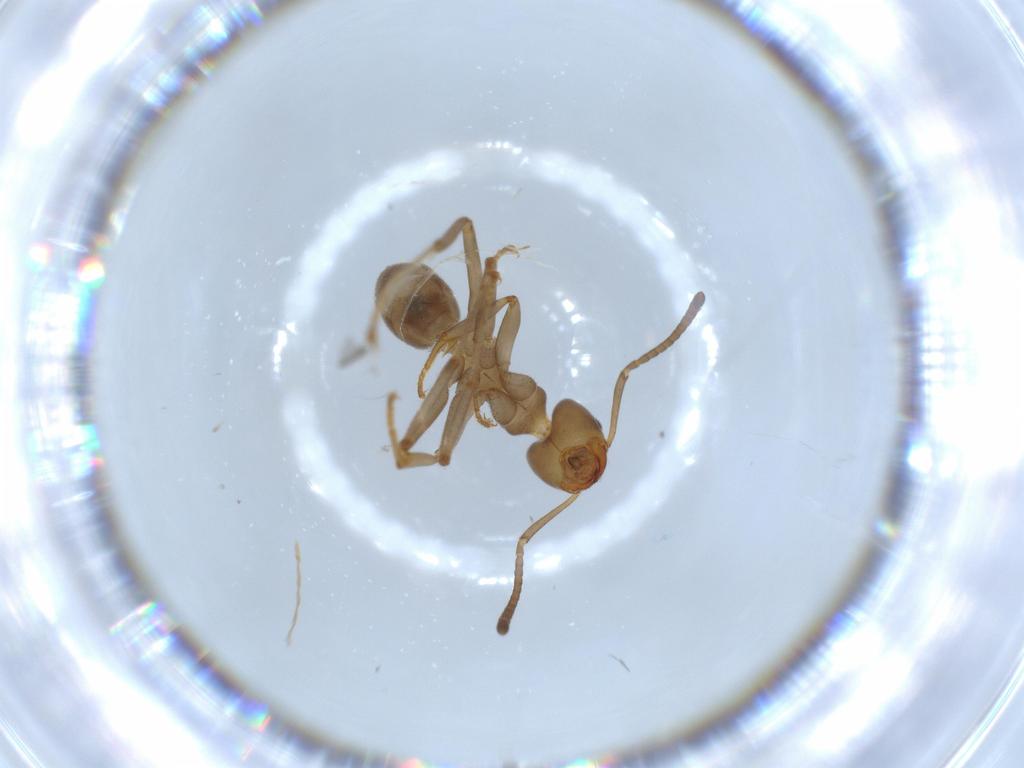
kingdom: Animalia
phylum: Arthropoda
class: Insecta
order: Hymenoptera
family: Formicidae
